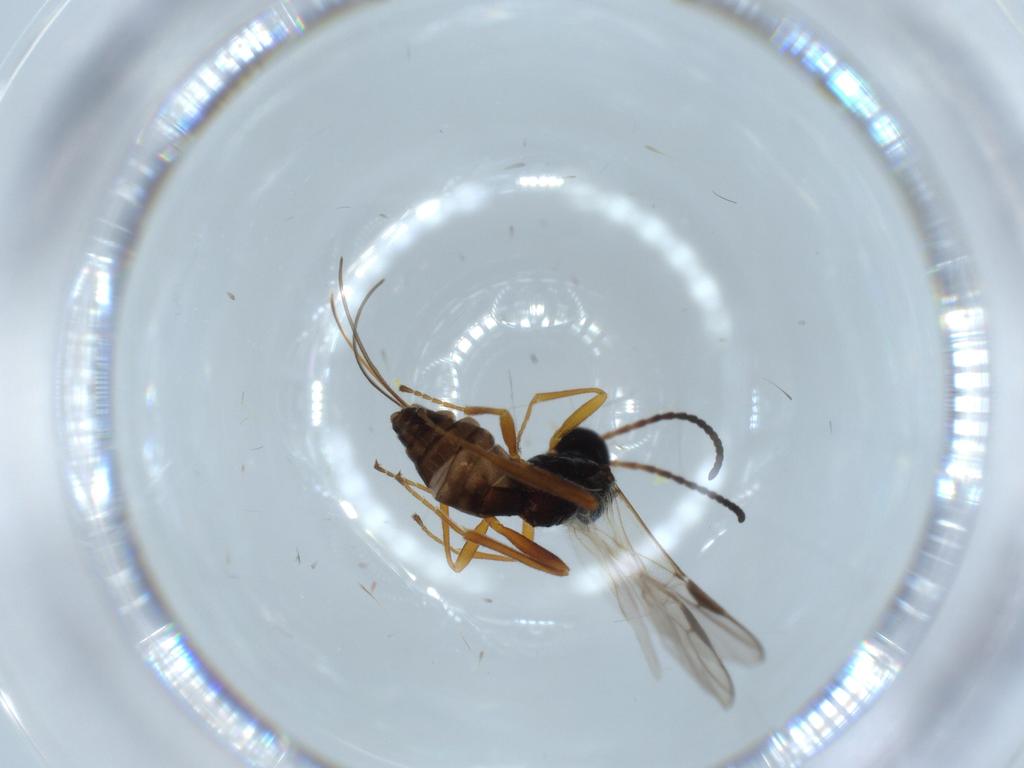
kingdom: Animalia
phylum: Arthropoda
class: Insecta
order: Hymenoptera
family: Braconidae
